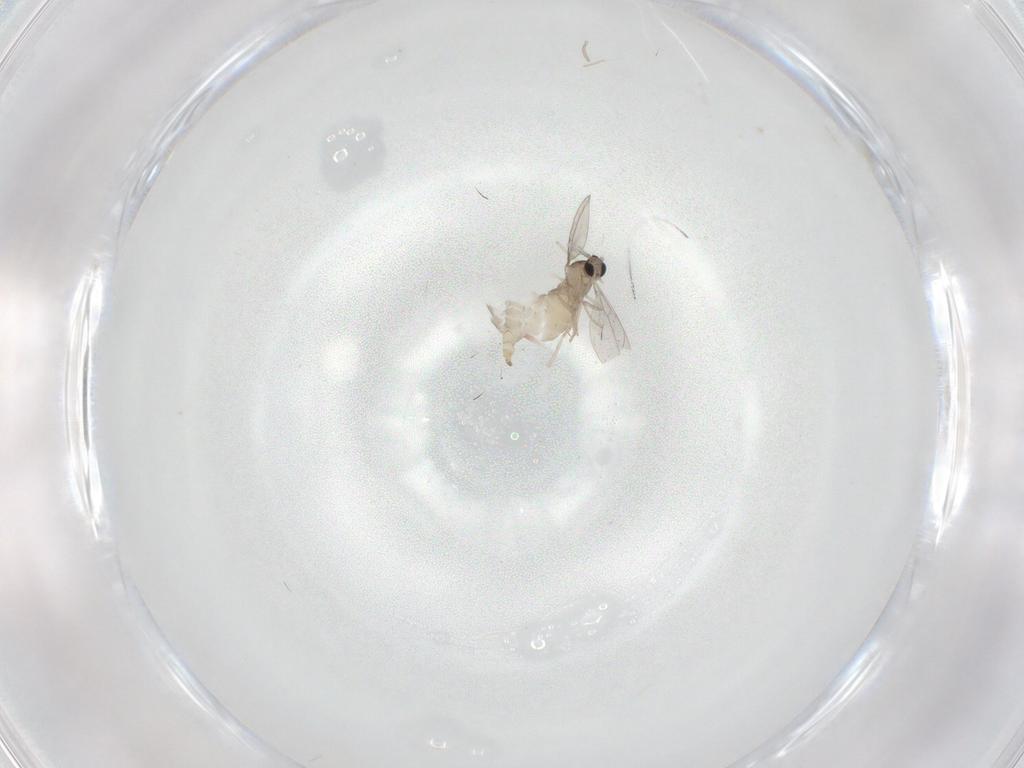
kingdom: Animalia
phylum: Arthropoda
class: Insecta
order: Diptera
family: Cecidomyiidae
